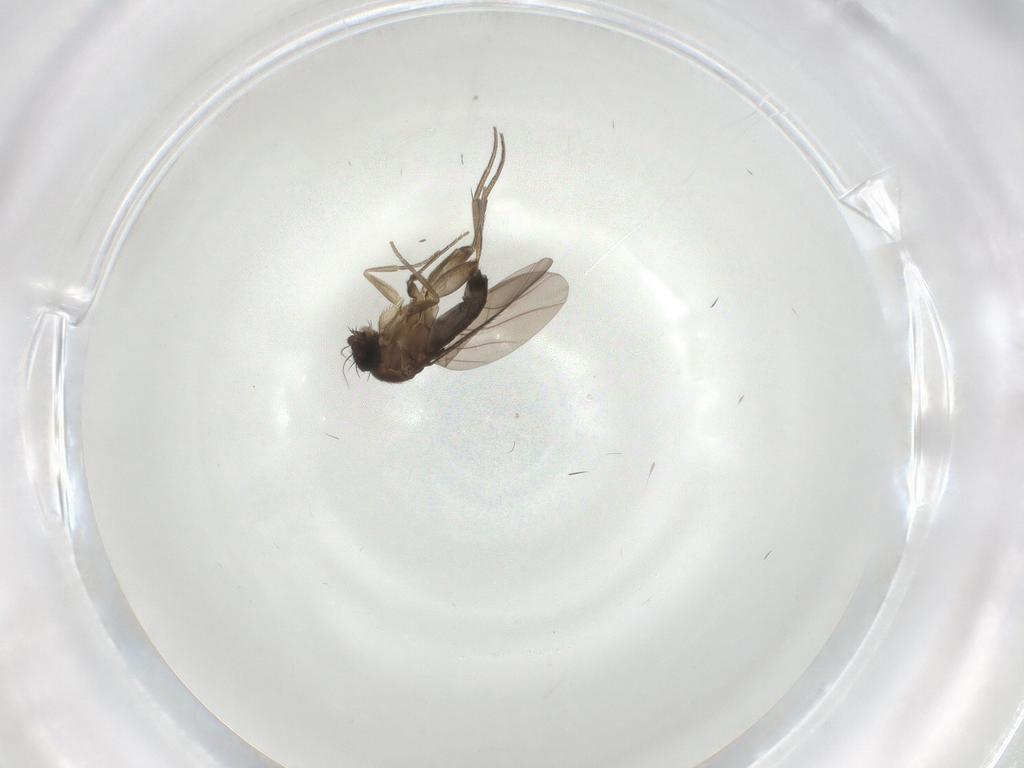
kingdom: Animalia
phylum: Arthropoda
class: Insecta
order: Diptera
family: Phoridae
